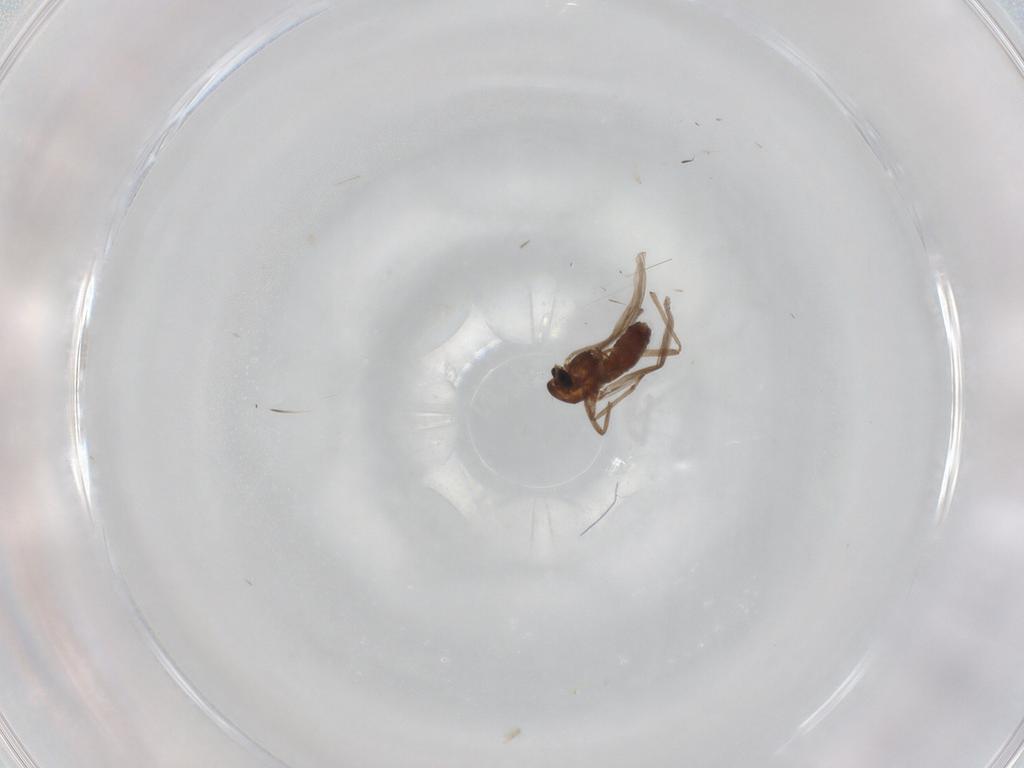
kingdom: Animalia
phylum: Arthropoda
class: Insecta
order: Diptera
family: Chironomidae
